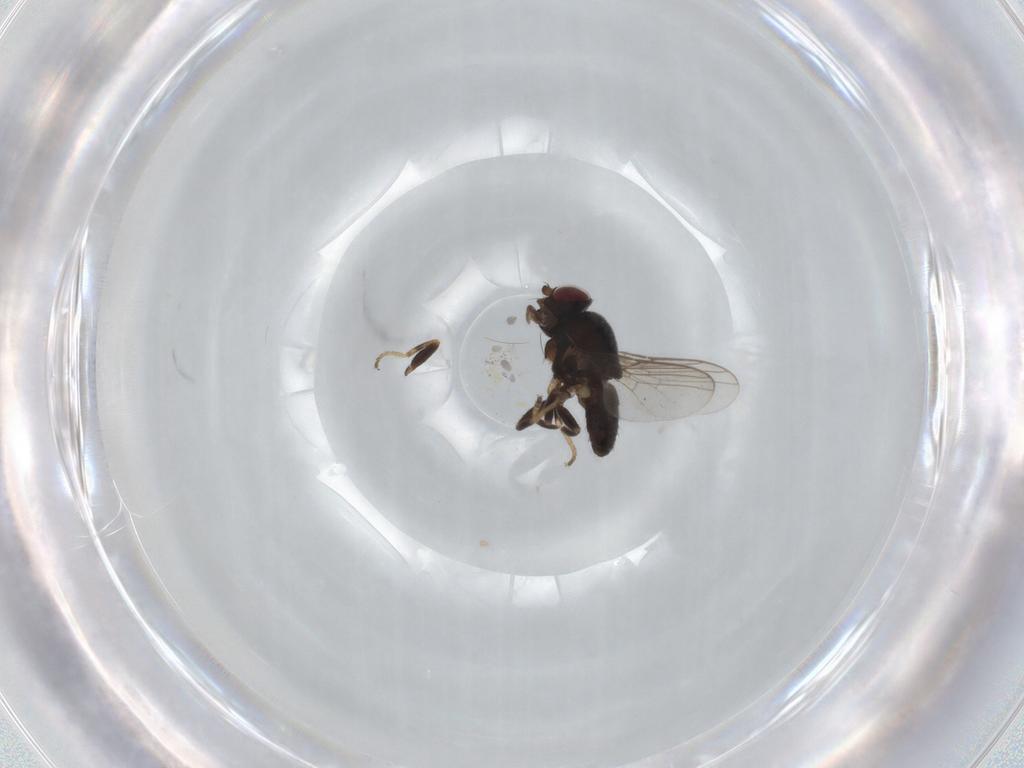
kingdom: Animalia
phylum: Arthropoda
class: Insecta
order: Diptera
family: Chloropidae
